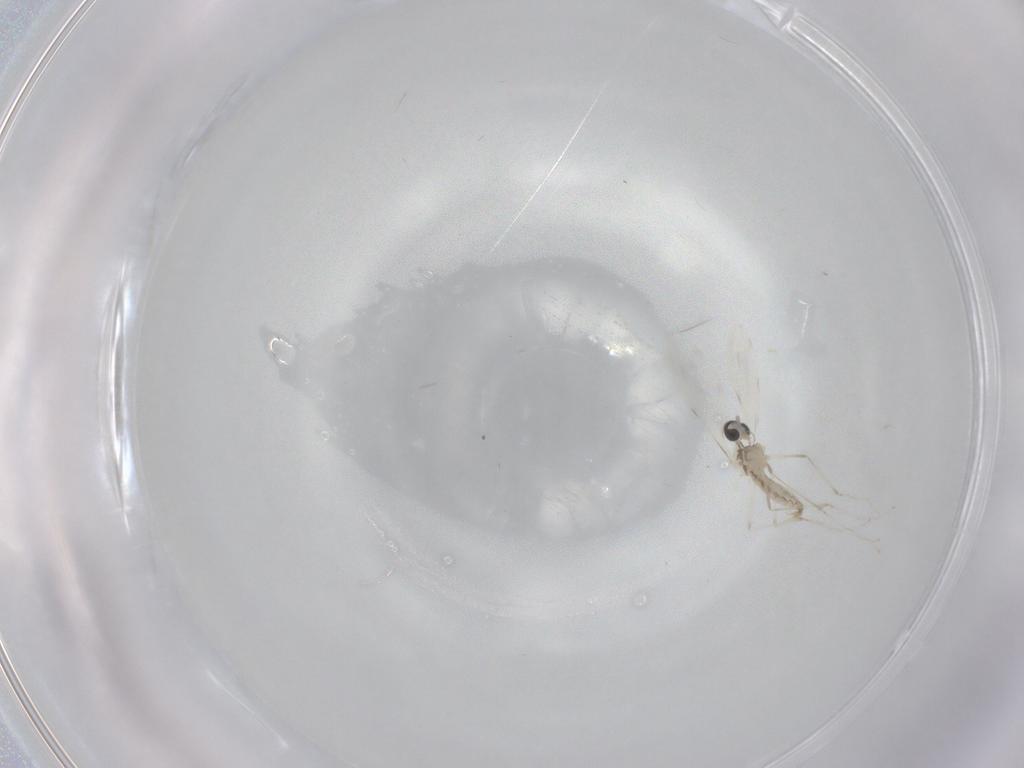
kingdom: Animalia
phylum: Arthropoda
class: Insecta
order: Diptera
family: Cecidomyiidae
